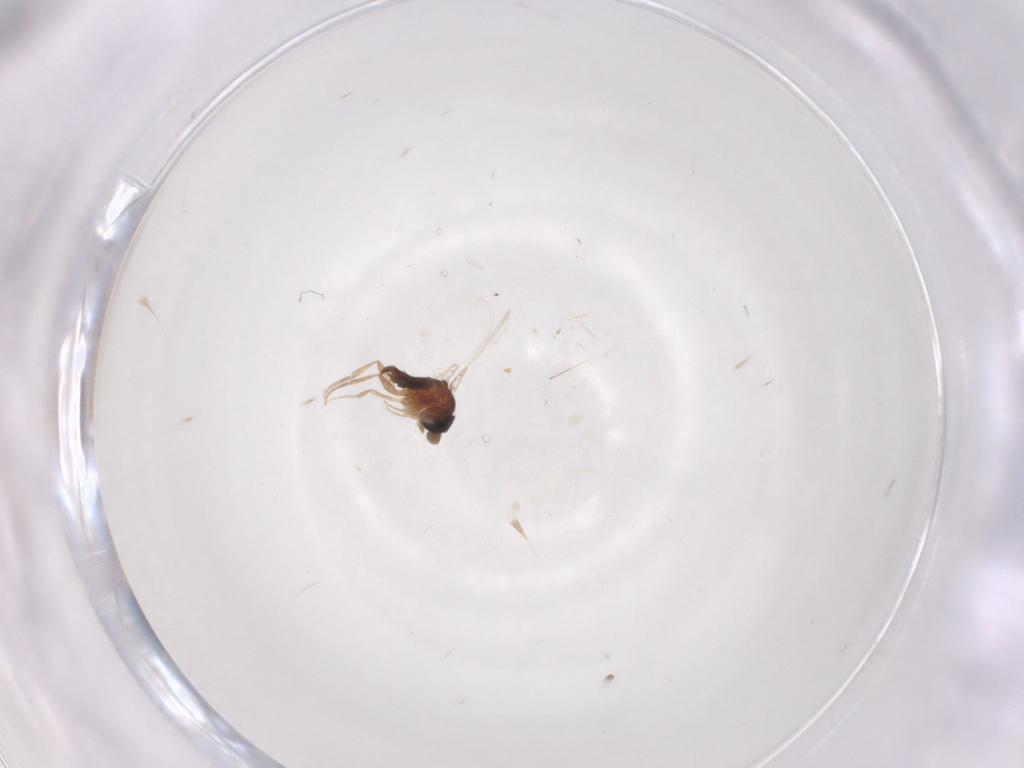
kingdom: Animalia
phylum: Arthropoda
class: Insecta
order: Diptera
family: Phoridae
